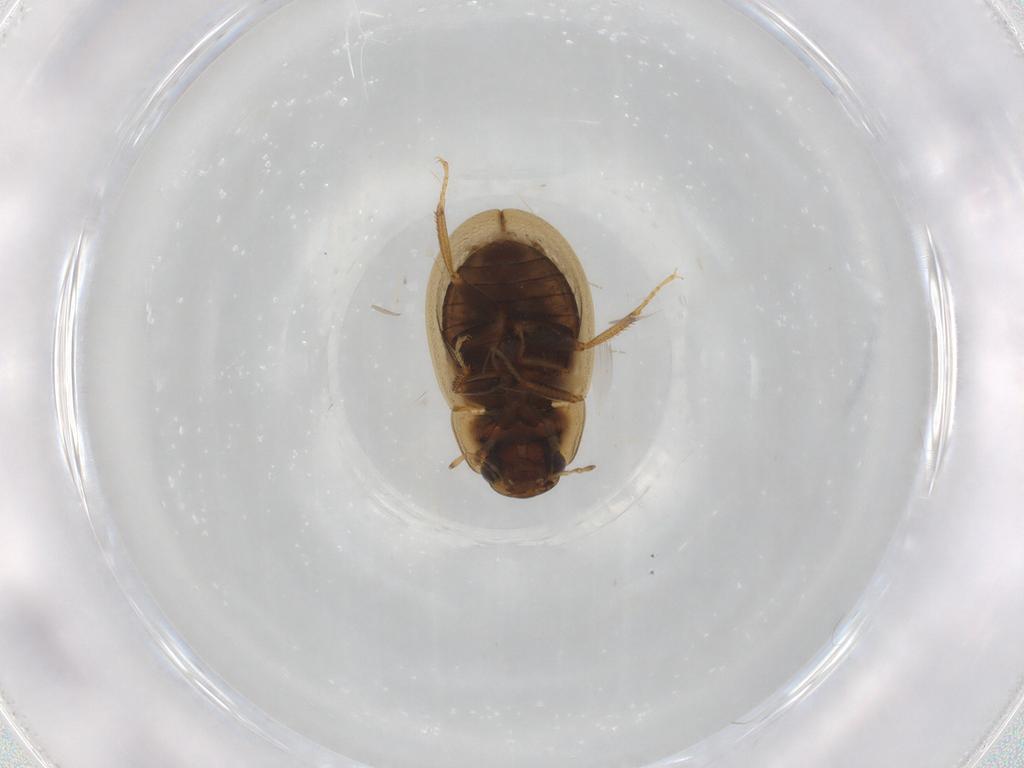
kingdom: Animalia
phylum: Arthropoda
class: Insecta
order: Coleoptera
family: Hydrophilidae
